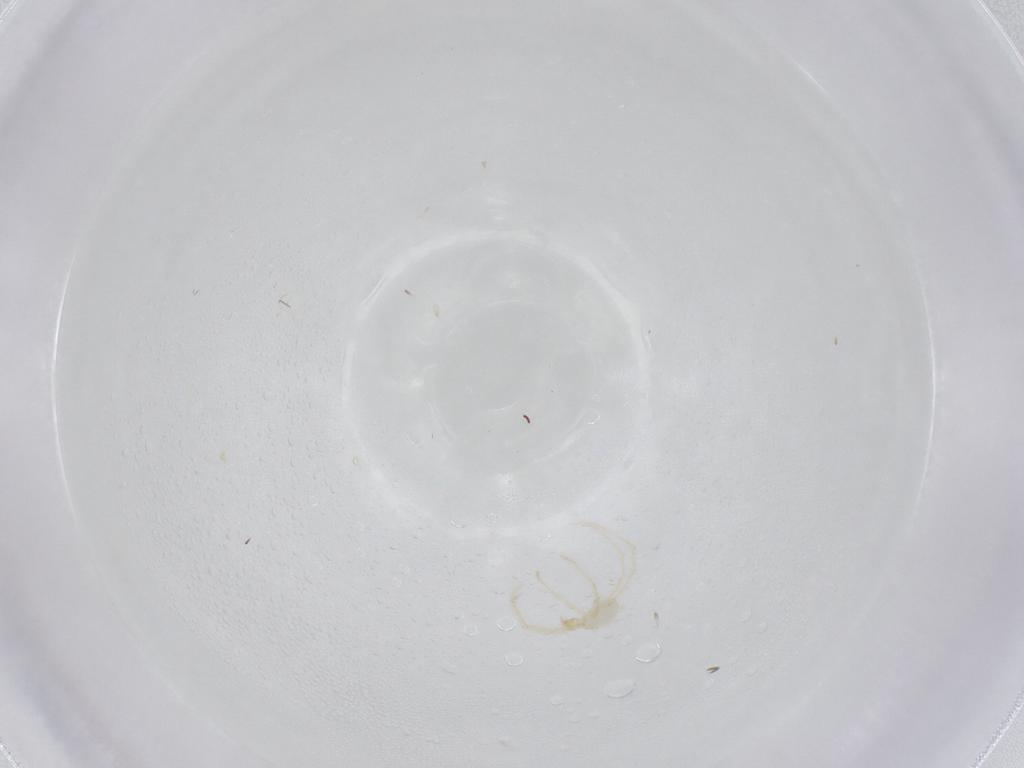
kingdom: Animalia
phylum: Arthropoda
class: Arachnida
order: Trombidiformes
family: Erythraeidae
